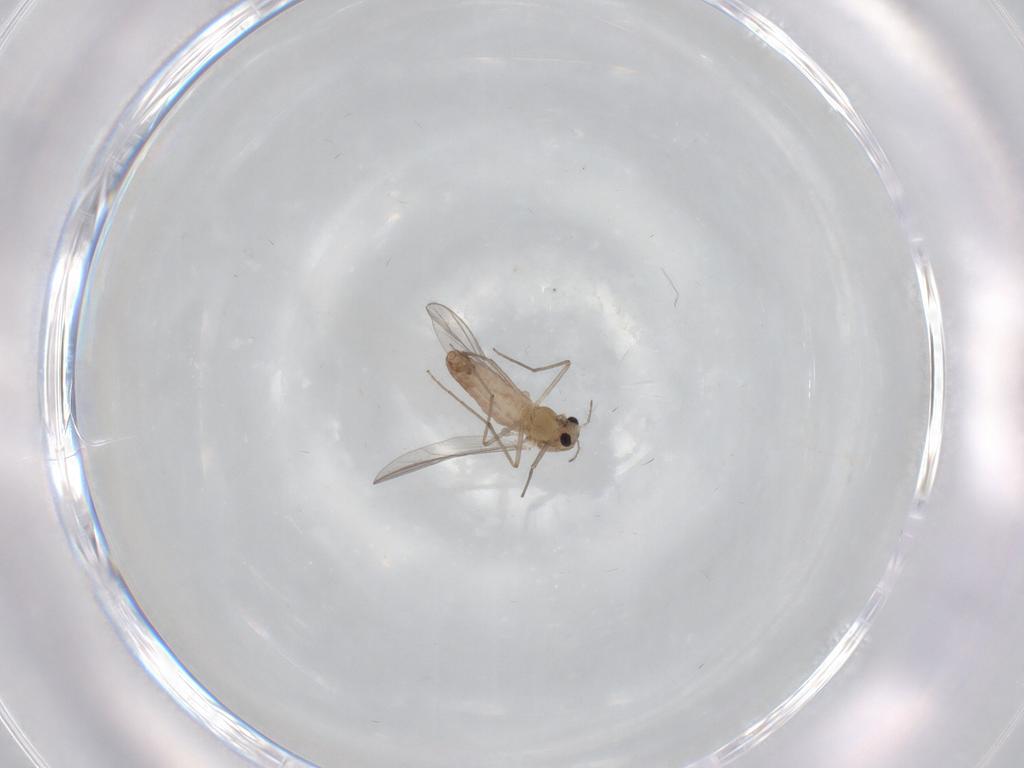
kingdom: Animalia
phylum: Arthropoda
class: Insecta
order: Diptera
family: Chironomidae
